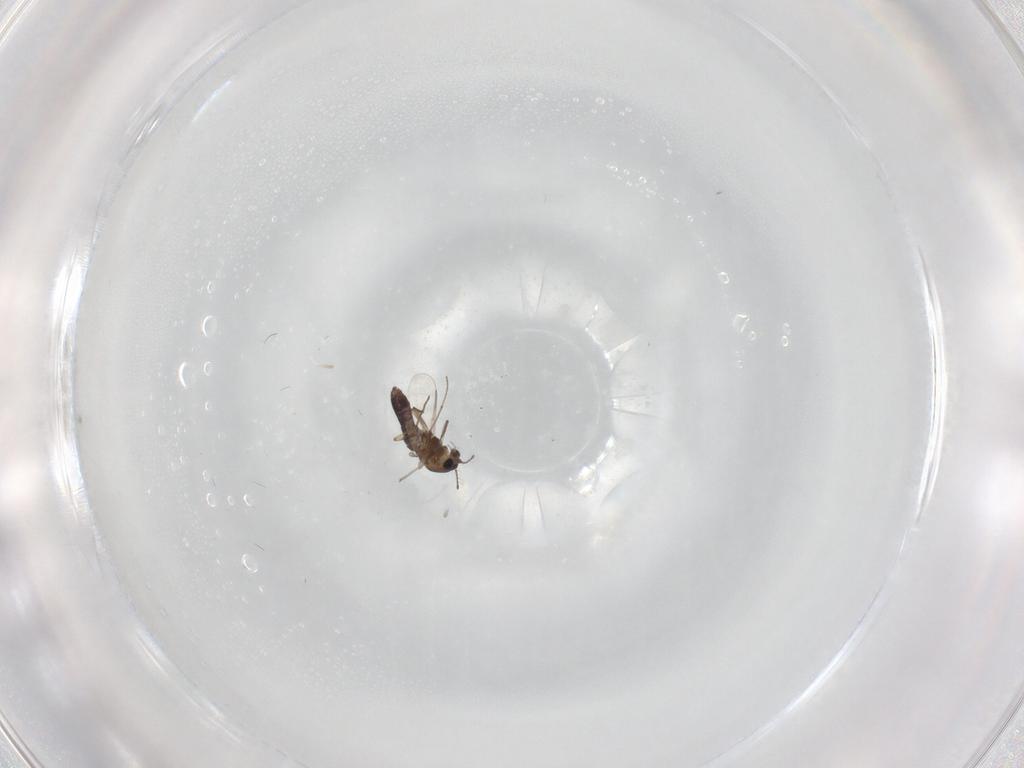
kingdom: Animalia
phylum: Arthropoda
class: Insecta
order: Diptera
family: Chironomidae
